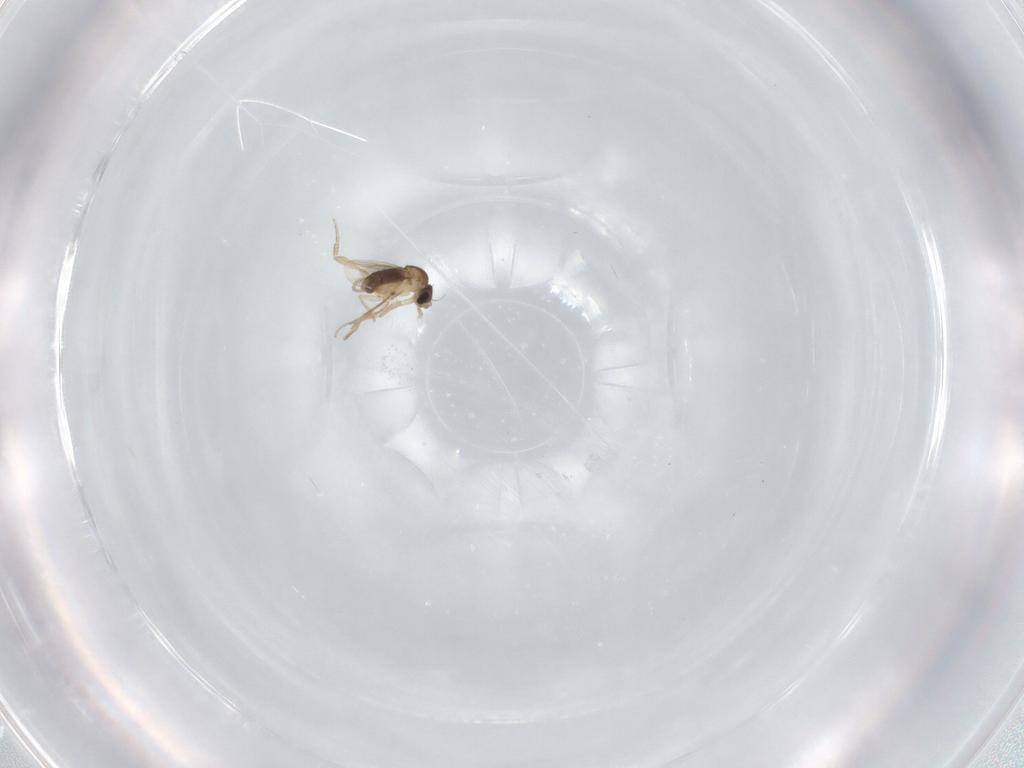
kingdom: Animalia
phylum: Arthropoda
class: Insecta
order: Diptera
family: Phoridae
